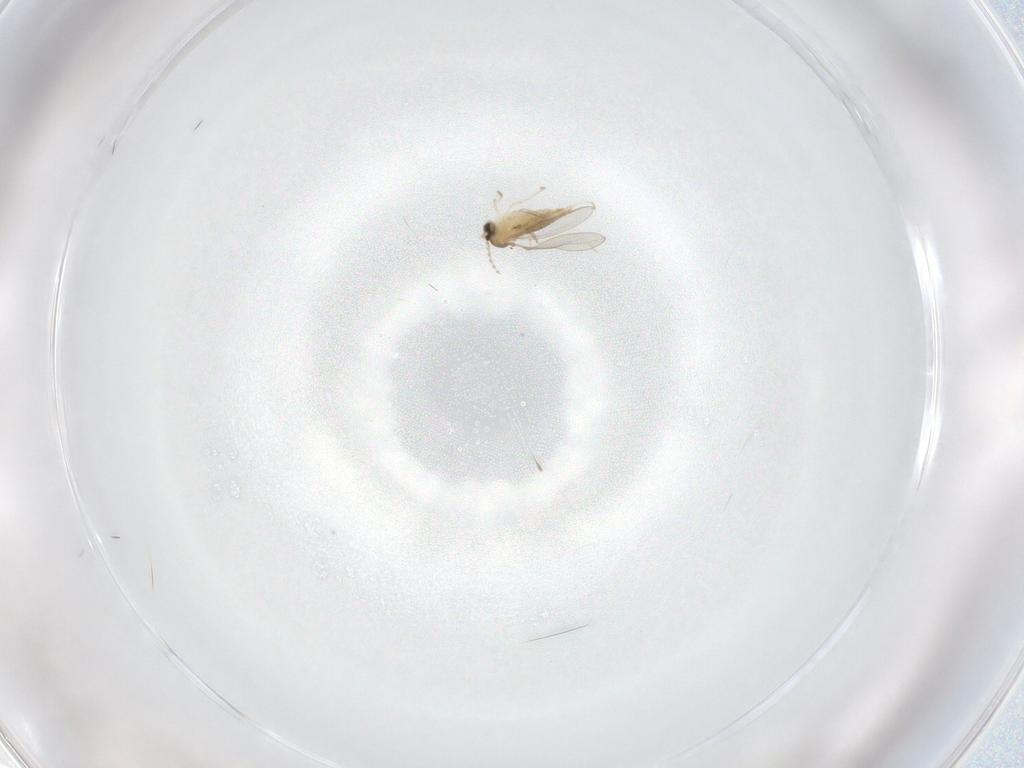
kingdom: Animalia
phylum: Arthropoda
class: Insecta
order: Diptera
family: Cecidomyiidae
